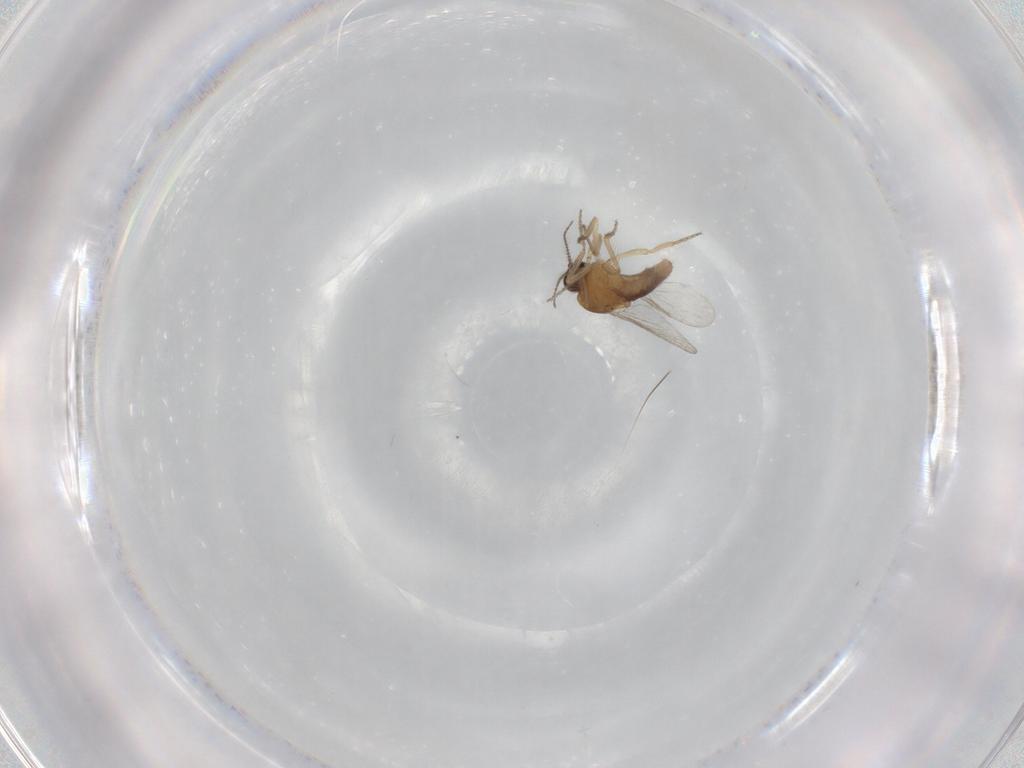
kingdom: Animalia
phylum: Arthropoda
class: Insecta
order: Diptera
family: Ceratopogonidae
